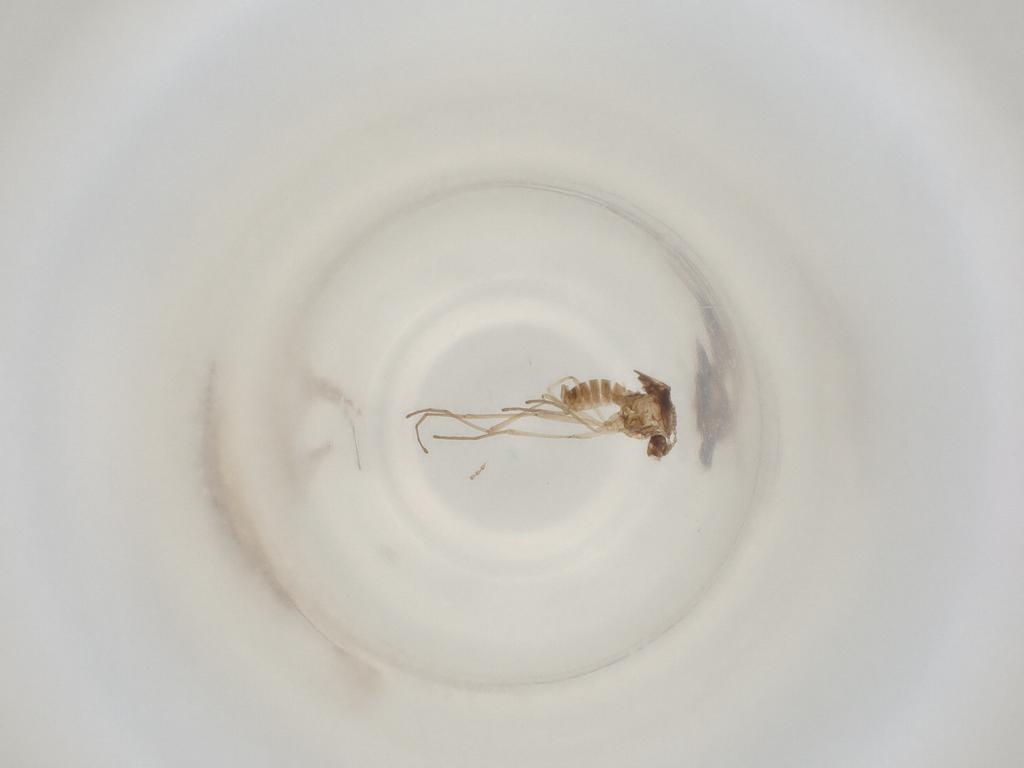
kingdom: Animalia
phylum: Arthropoda
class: Insecta
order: Diptera
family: Cecidomyiidae
